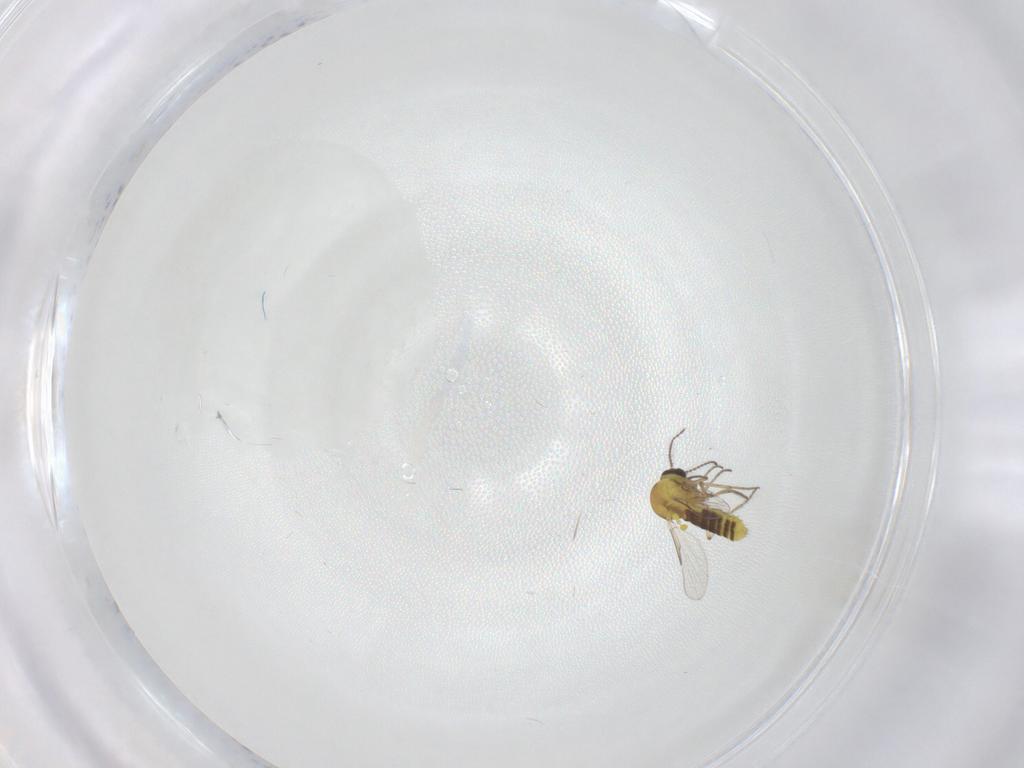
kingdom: Animalia
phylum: Arthropoda
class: Insecta
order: Diptera
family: Ceratopogonidae
